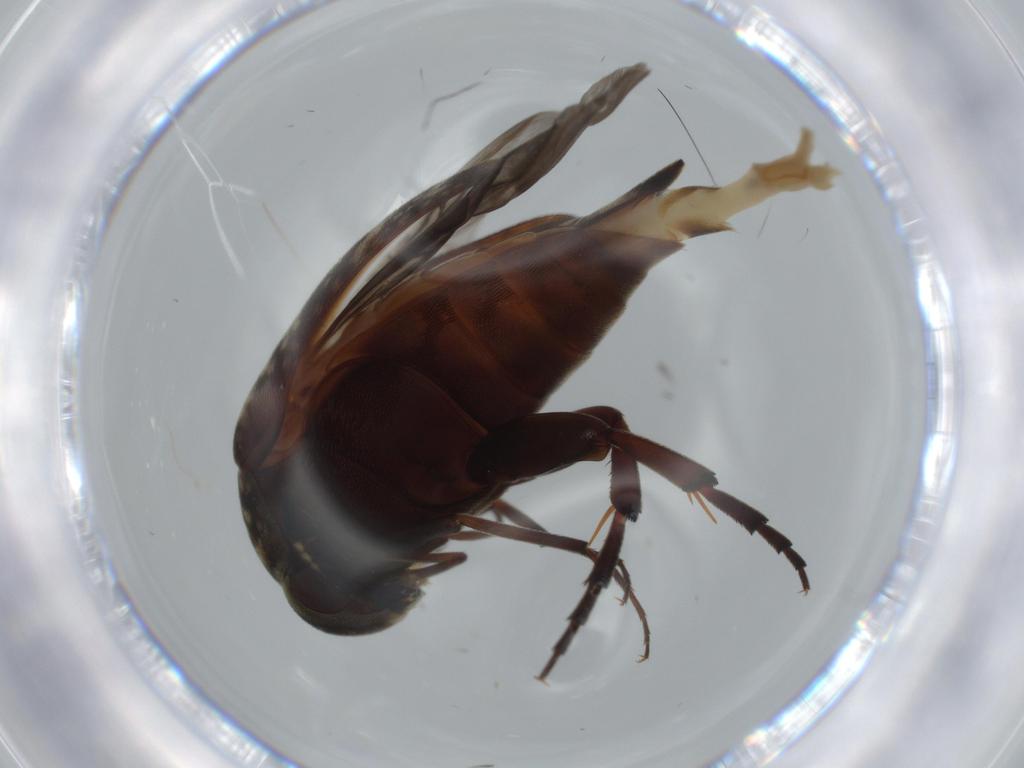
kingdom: Animalia
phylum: Arthropoda
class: Insecta
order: Coleoptera
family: Tenebrionidae
